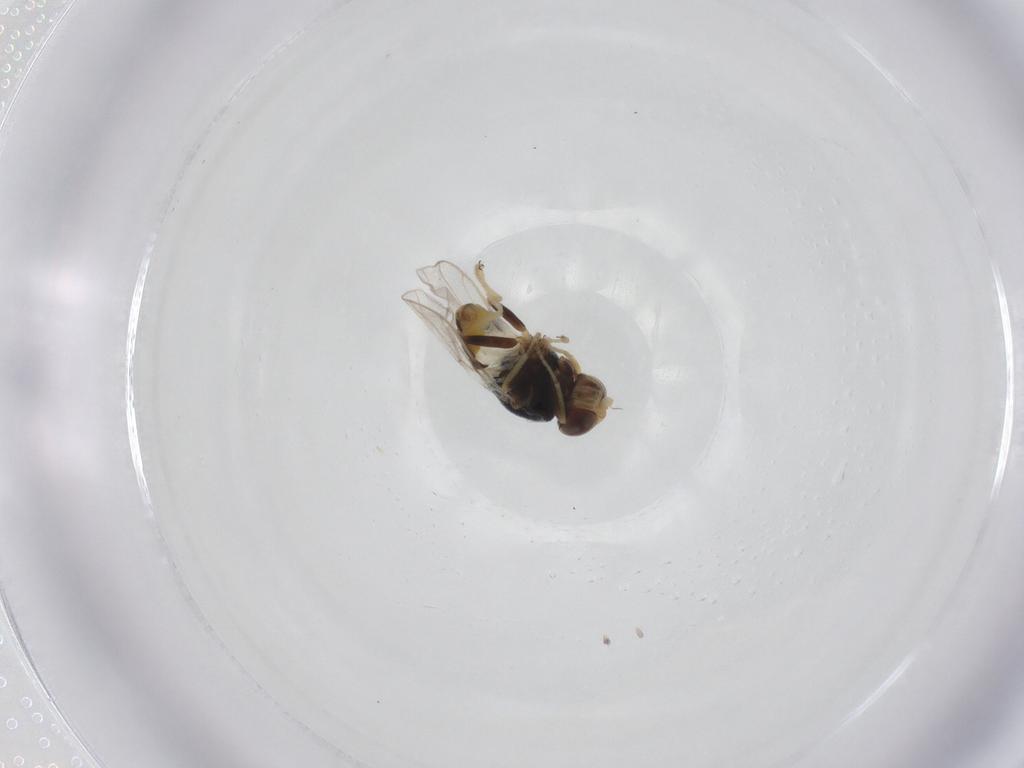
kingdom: Animalia
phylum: Arthropoda
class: Insecta
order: Diptera
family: Chloropidae
